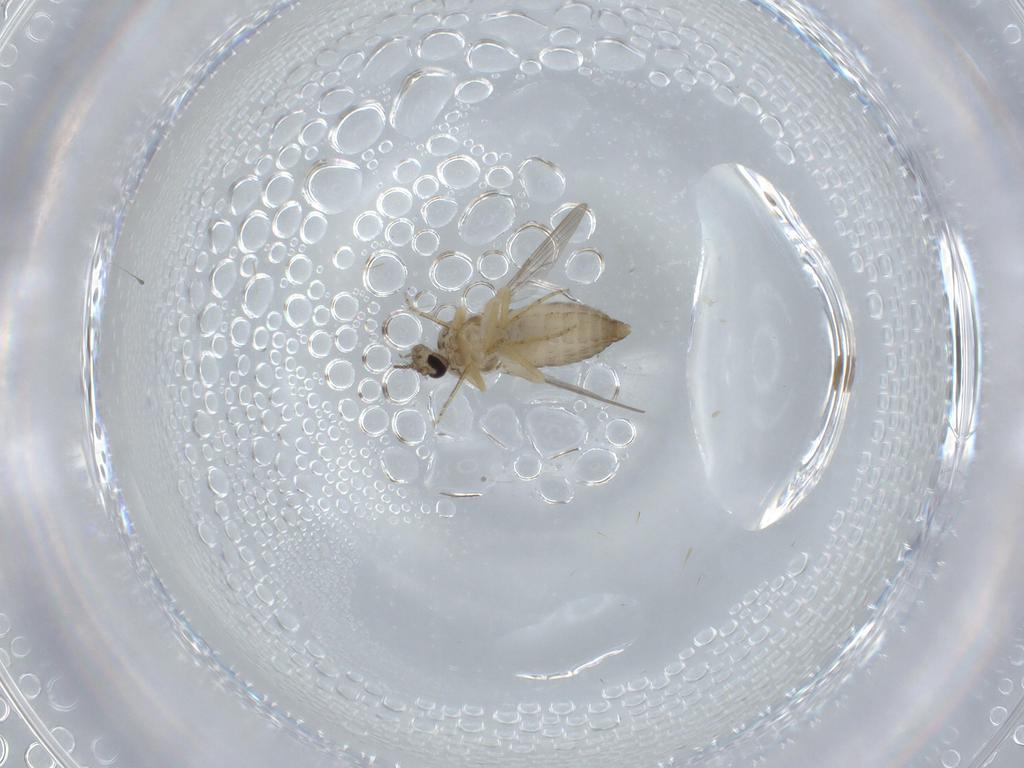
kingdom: Animalia
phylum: Arthropoda
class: Insecta
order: Diptera
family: Ceratopogonidae
